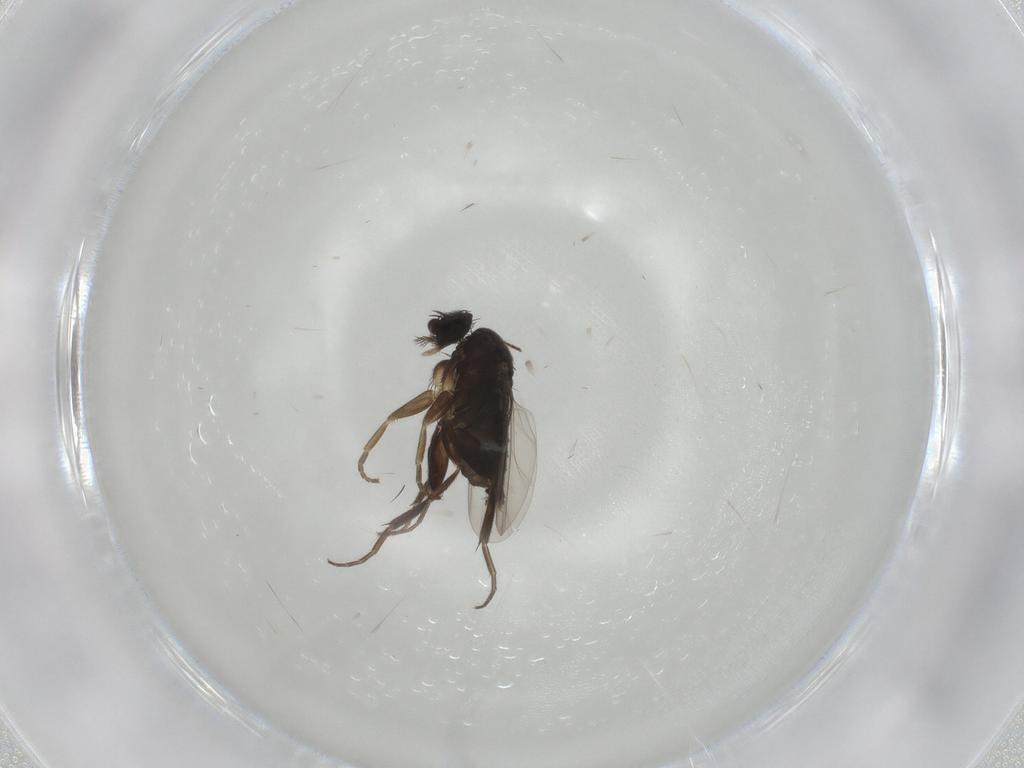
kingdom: Animalia
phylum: Arthropoda
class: Insecta
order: Diptera
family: Phoridae
